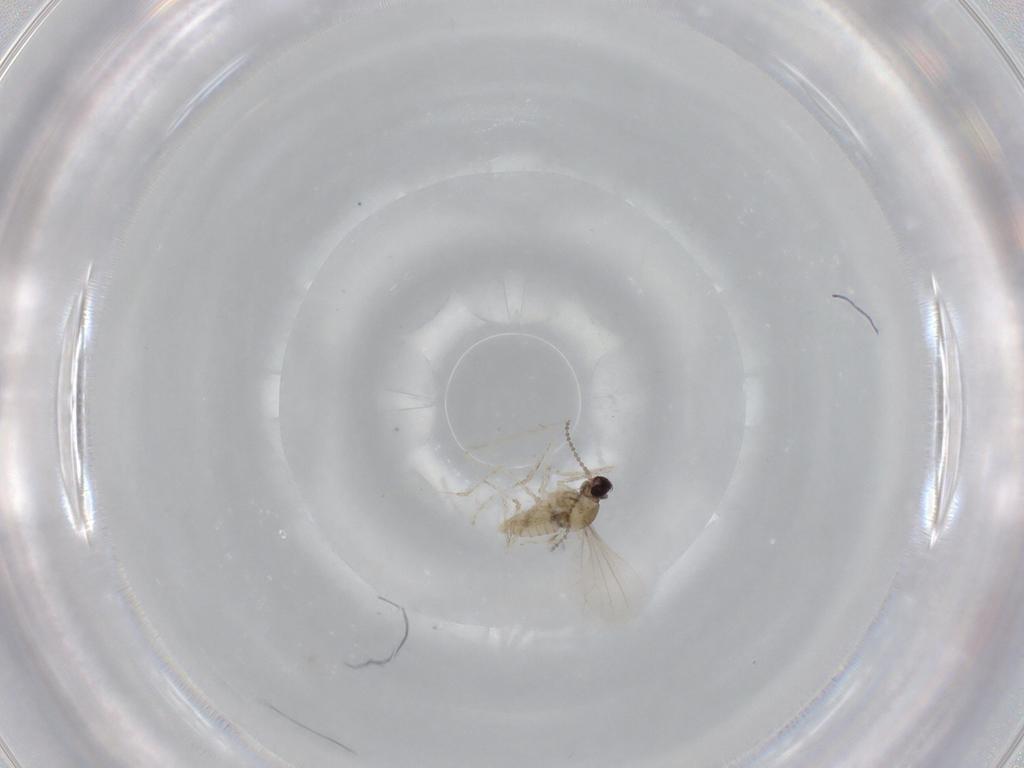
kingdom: Animalia
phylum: Arthropoda
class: Insecta
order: Diptera
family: Cecidomyiidae
